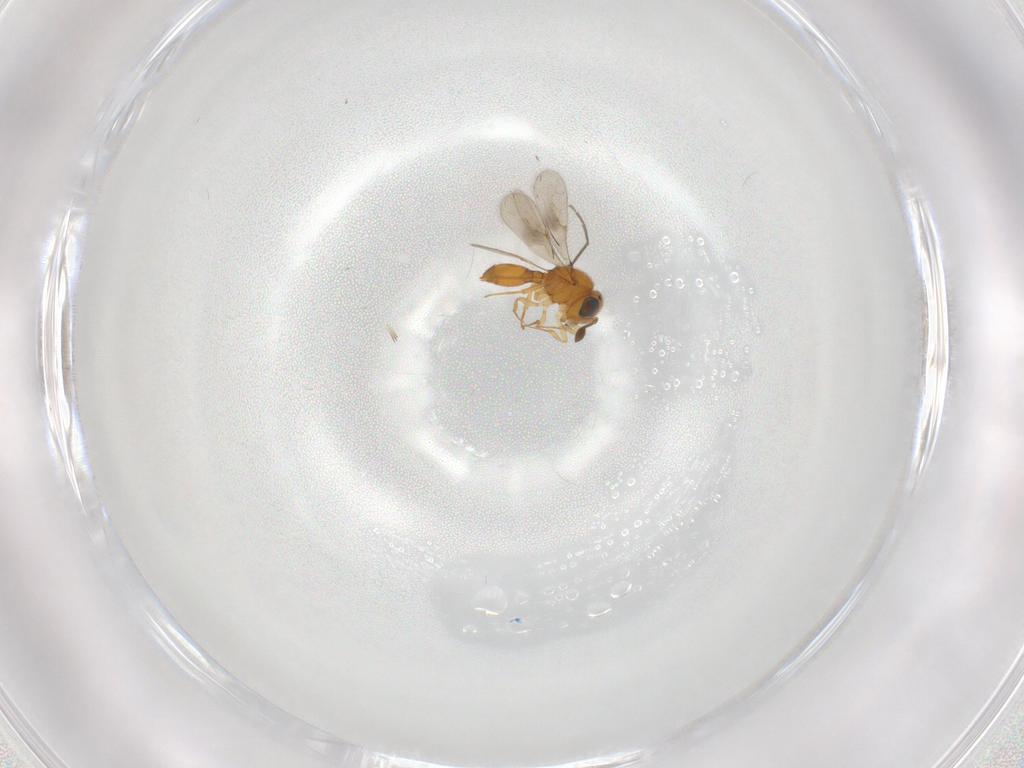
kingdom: Animalia
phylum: Arthropoda
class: Insecta
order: Hymenoptera
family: Scelionidae
